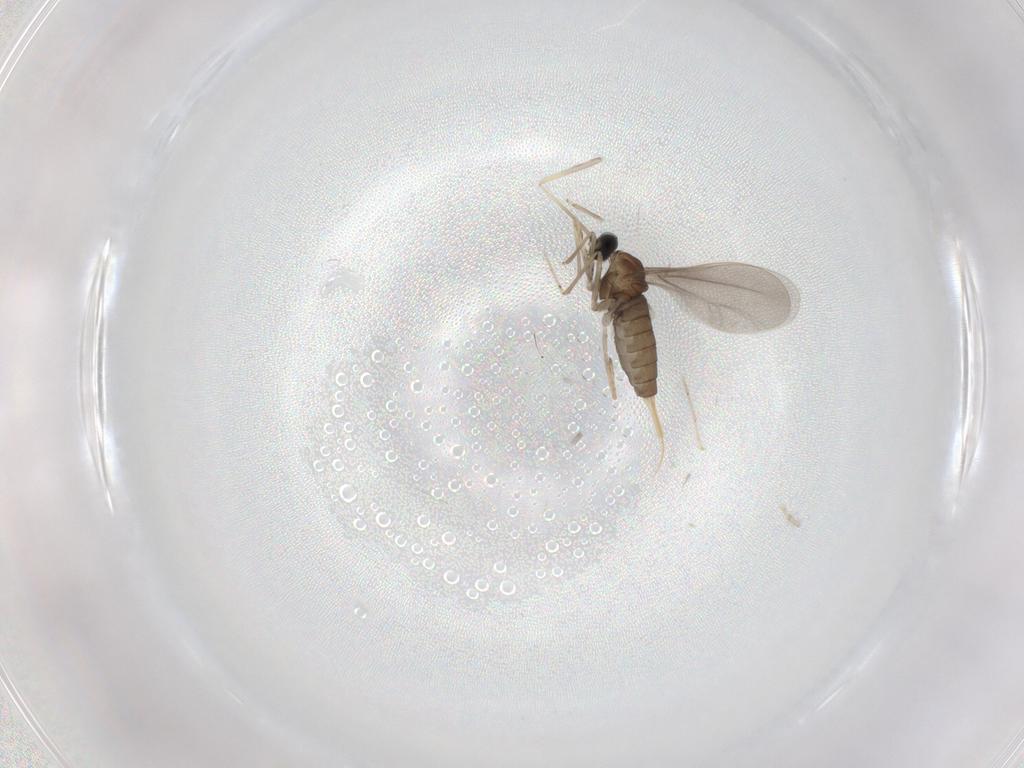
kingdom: Animalia
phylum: Arthropoda
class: Insecta
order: Diptera
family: Cecidomyiidae
